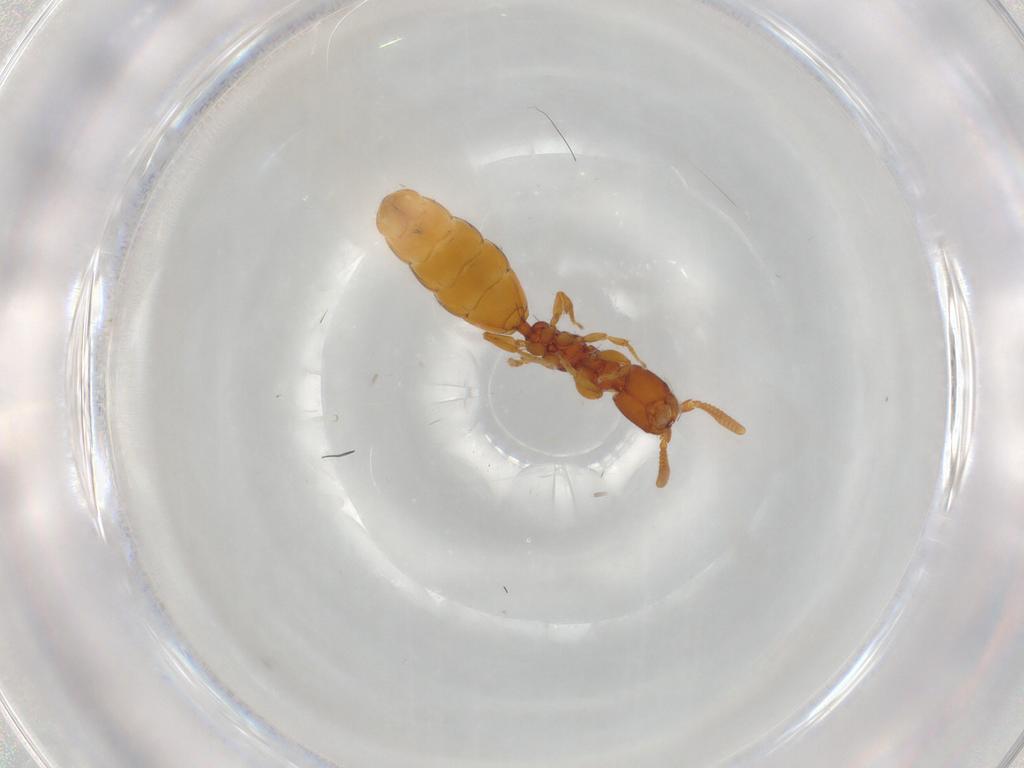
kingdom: Animalia
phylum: Arthropoda
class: Insecta
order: Hymenoptera
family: Bethylidae
